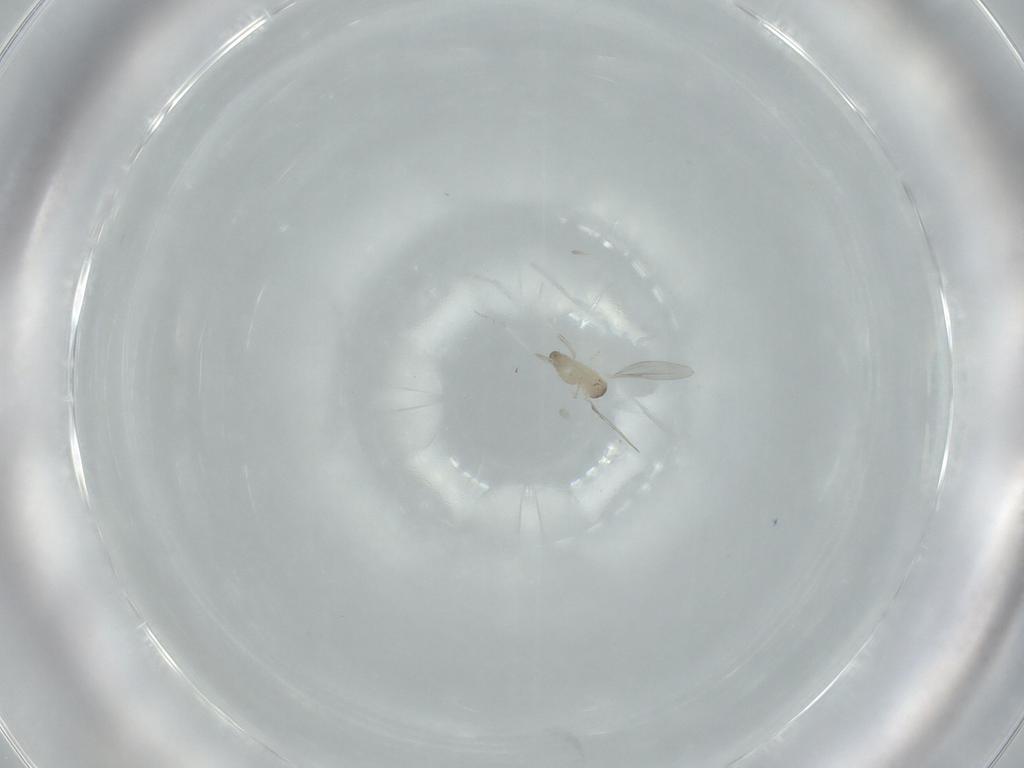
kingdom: Animalia
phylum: Arthropoda
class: Insecta
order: Diptera
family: Cecidomyiidae
